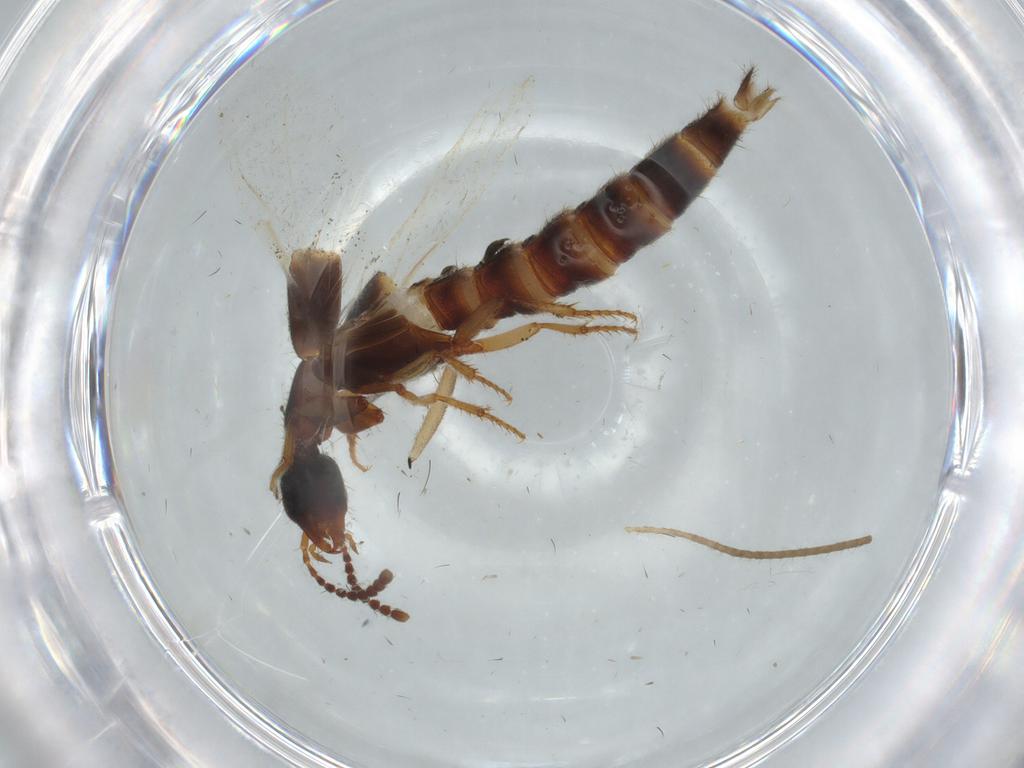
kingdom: Animalia
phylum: Arthropoda
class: Insecta
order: Coleoptera
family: Staphylinidae
